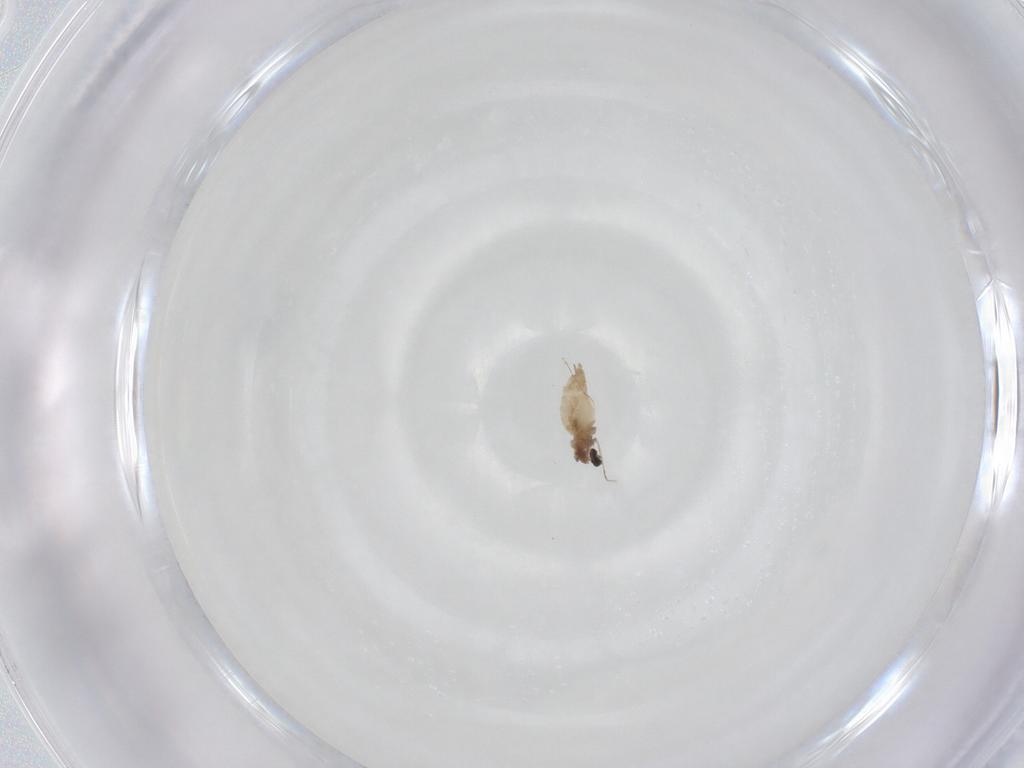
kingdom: Animalia
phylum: Arthropoda
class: Insecta
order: Diptera
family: Cecidomyiidae
